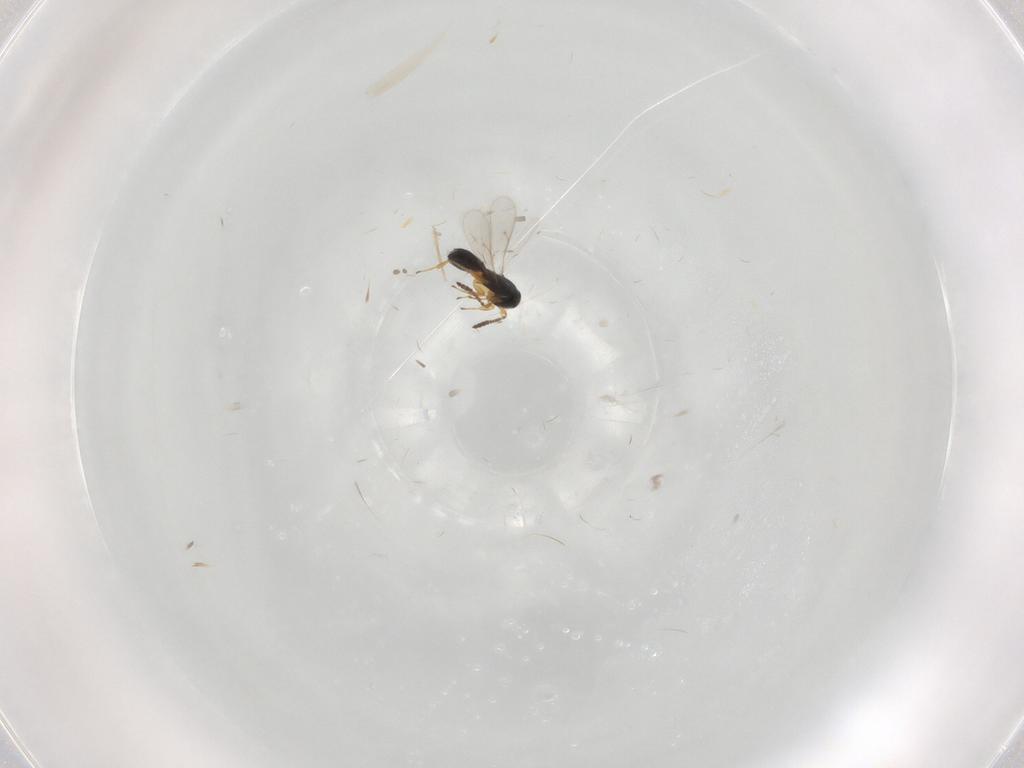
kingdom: Animalia
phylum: Arthropoda
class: Insecta
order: Hymenoptera
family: Scelionidae
